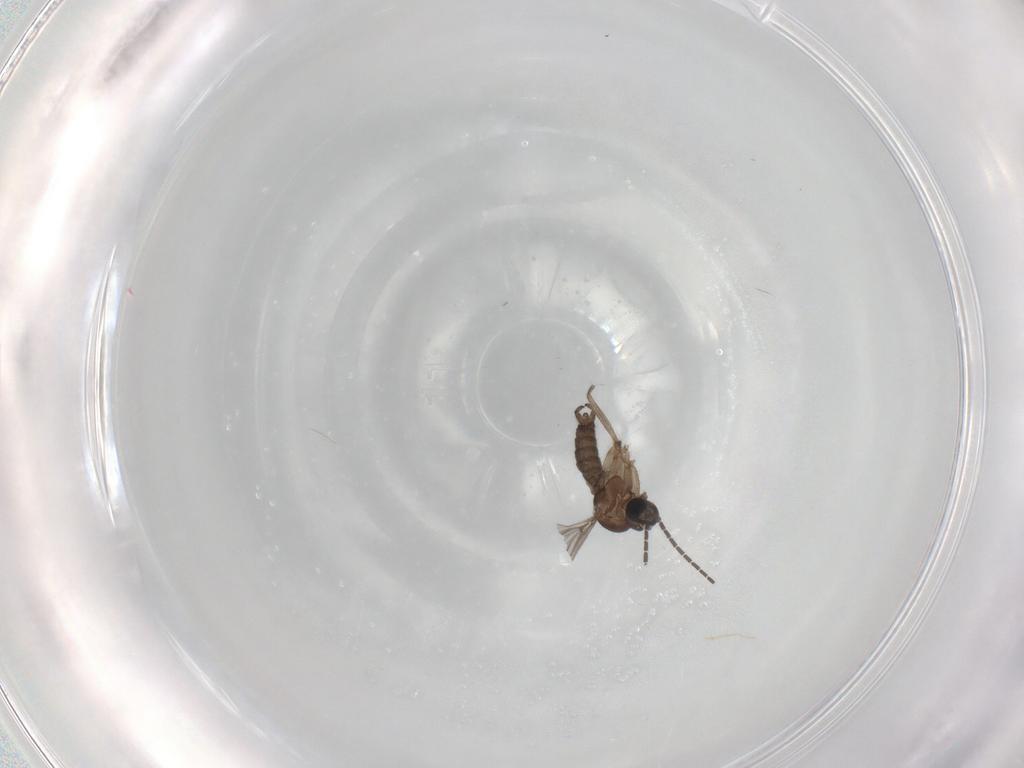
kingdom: Animalia
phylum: Arthropoda
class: Insecta
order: Diptera
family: Sciaridae
